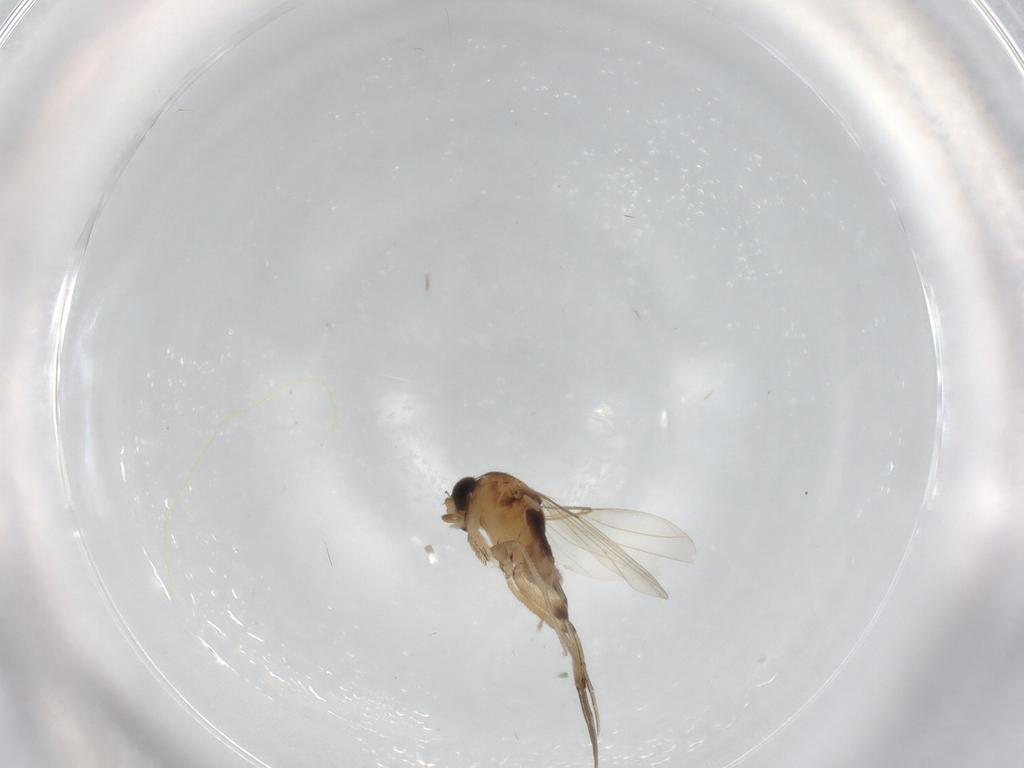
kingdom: Animalia
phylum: Arthropoda
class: Insecta
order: Diptera
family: Phoridae
